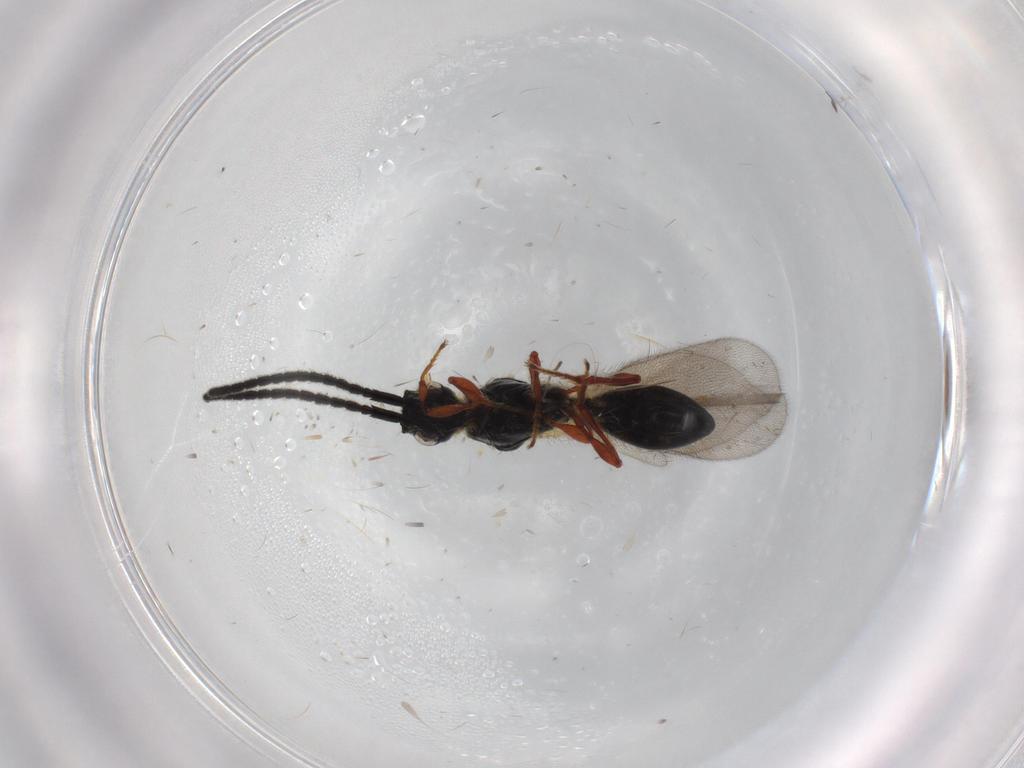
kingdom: Animalia
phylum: Arthropoda
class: Insecta
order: Hymenoptera
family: Diapriidae
